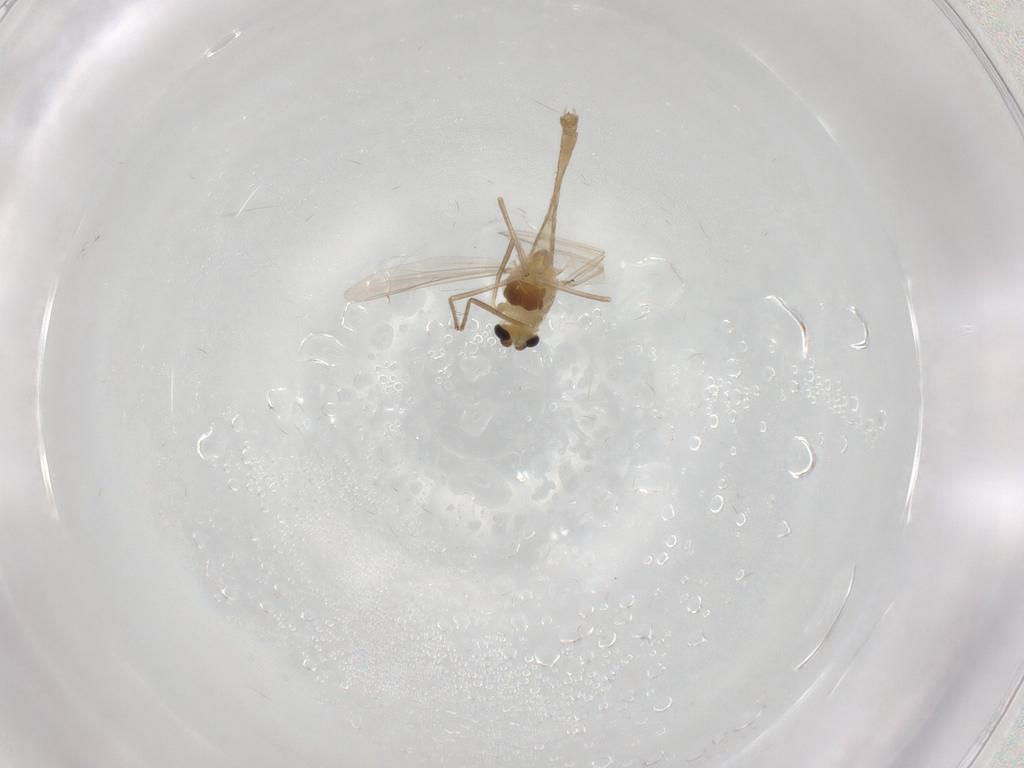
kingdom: Animalia
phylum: Arthropoda
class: Insecta
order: Diptera
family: Chironomidae
